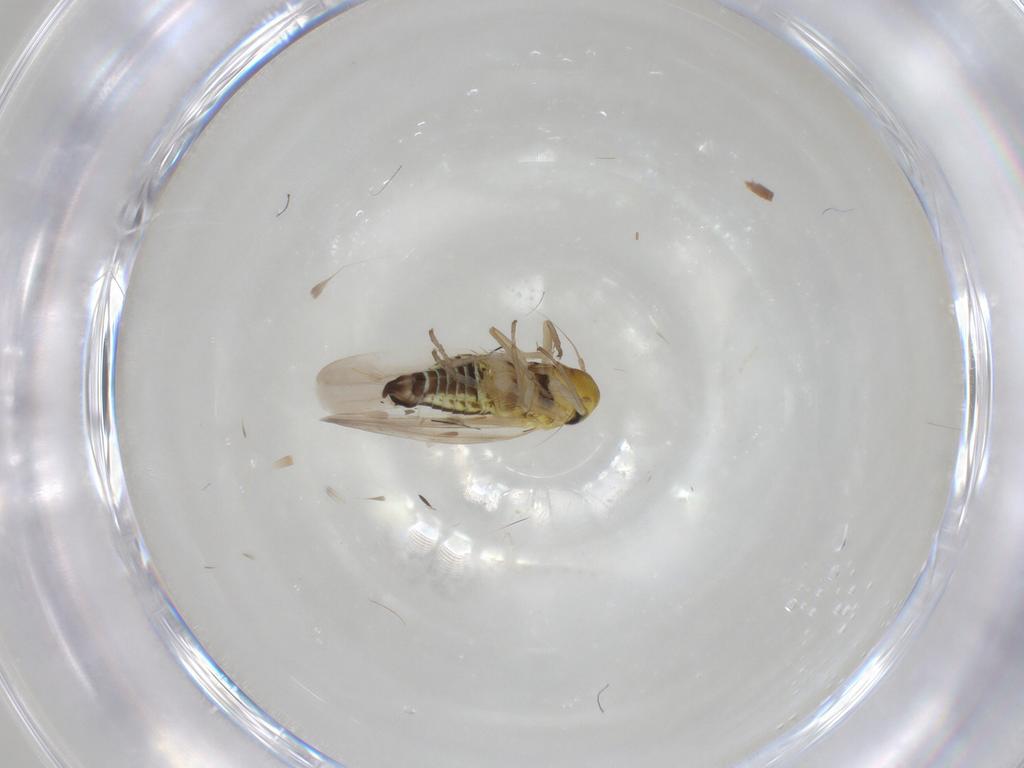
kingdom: Animalia
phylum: Arthropoda
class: Insecta
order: Hemiptera
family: Cicadellidae
